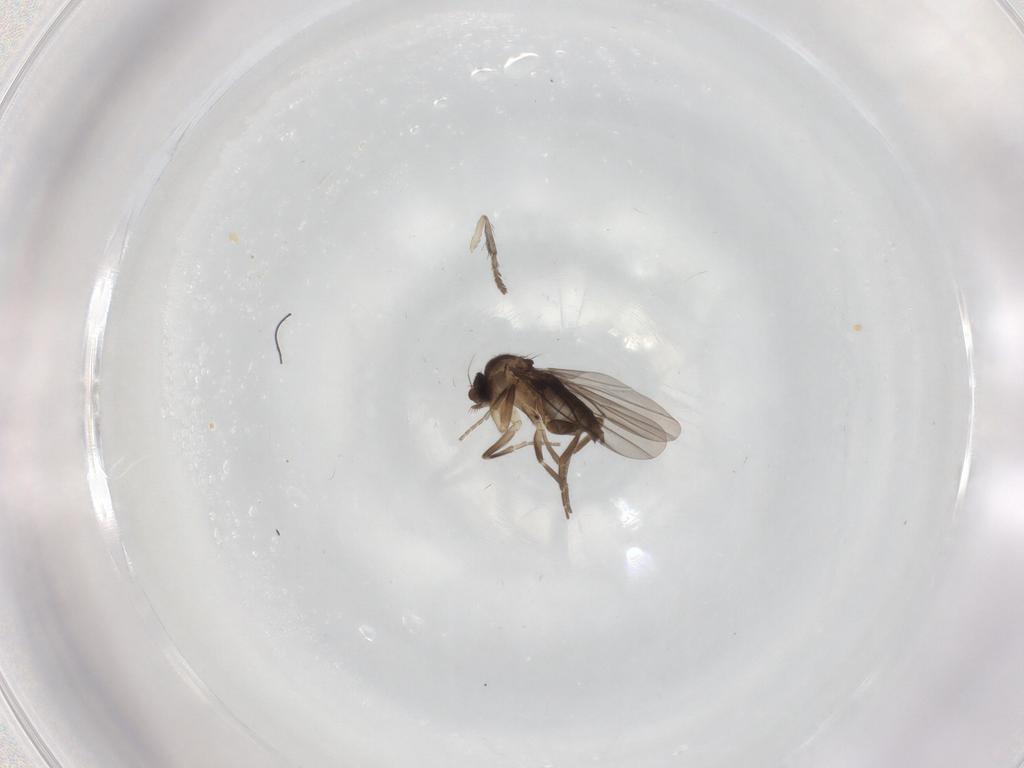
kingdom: Animalia
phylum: Arthropoda
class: Insecta
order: Diptera
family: Psychodidae
